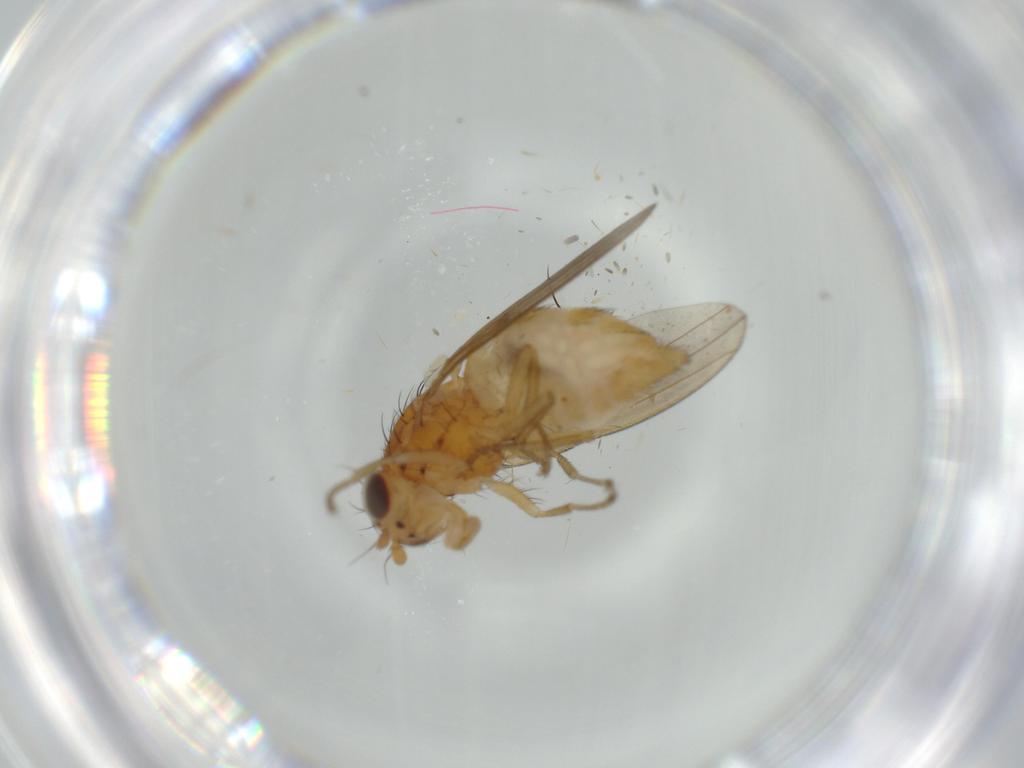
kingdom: Animalia
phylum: Arthropoda
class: Insecta
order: Diptera
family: Lauxaniidae
